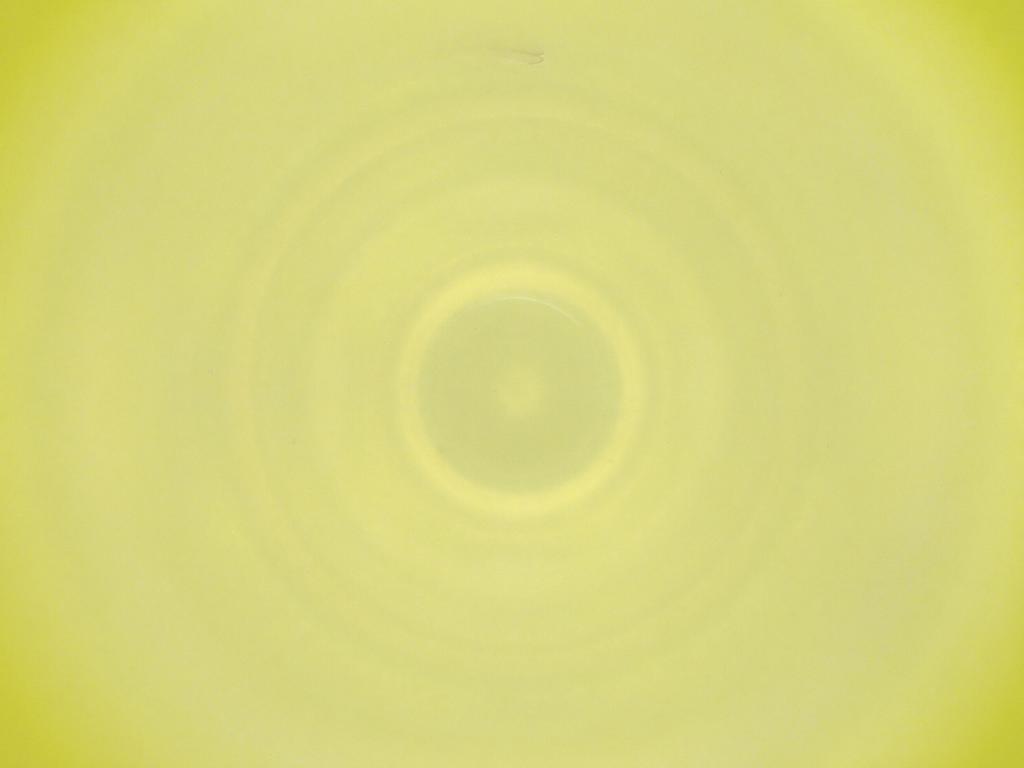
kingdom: Animalia
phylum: Arthropoda
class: Insecta
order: Diptera
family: Cecidomyiidae
